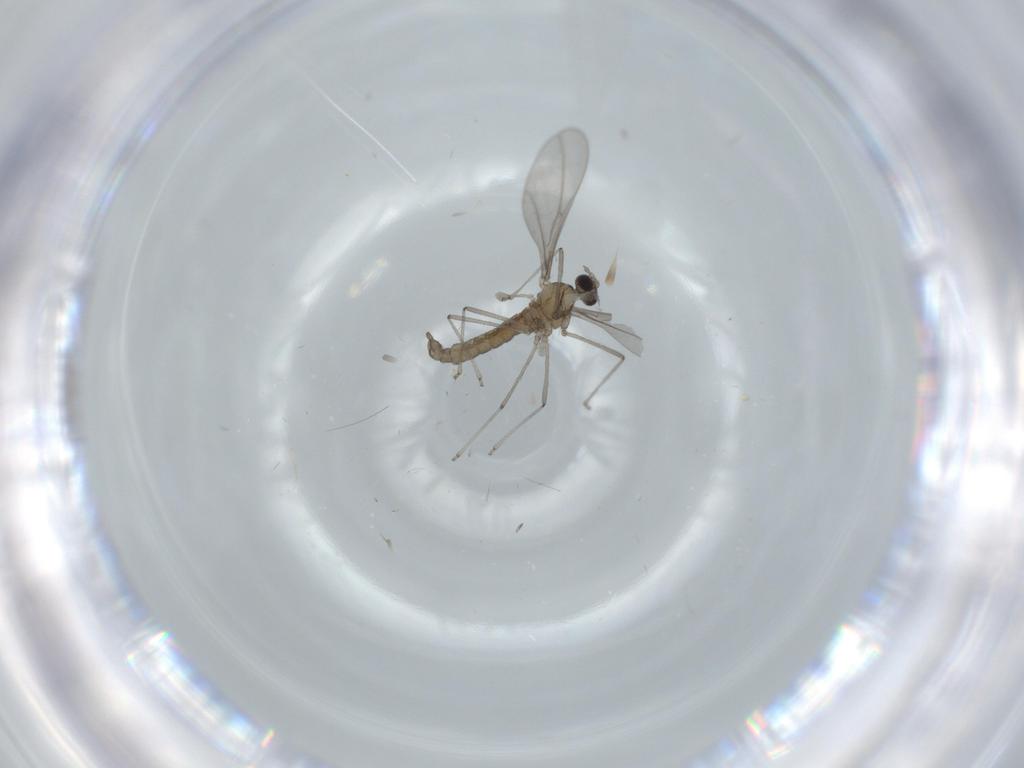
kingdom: Animalia
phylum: Arthropoda
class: Insecta
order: Diptera
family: Cecidomyiidae
